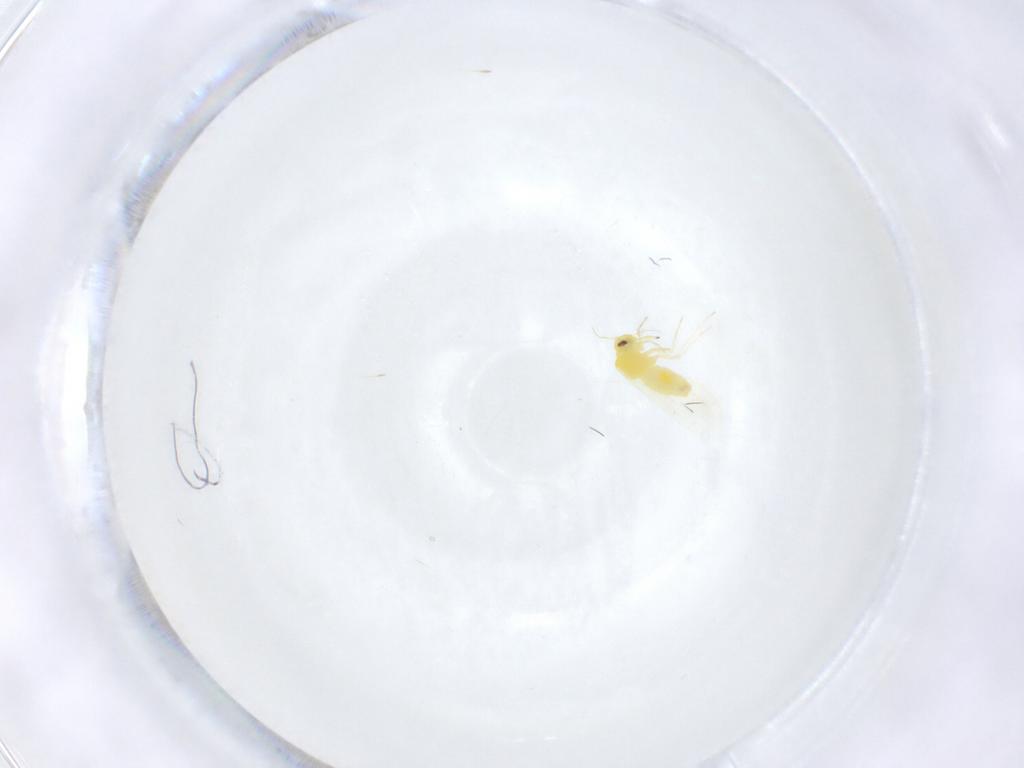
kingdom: Animalia
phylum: Arthropoda
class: Insecta
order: Hemiptera
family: Aleyrodidae
